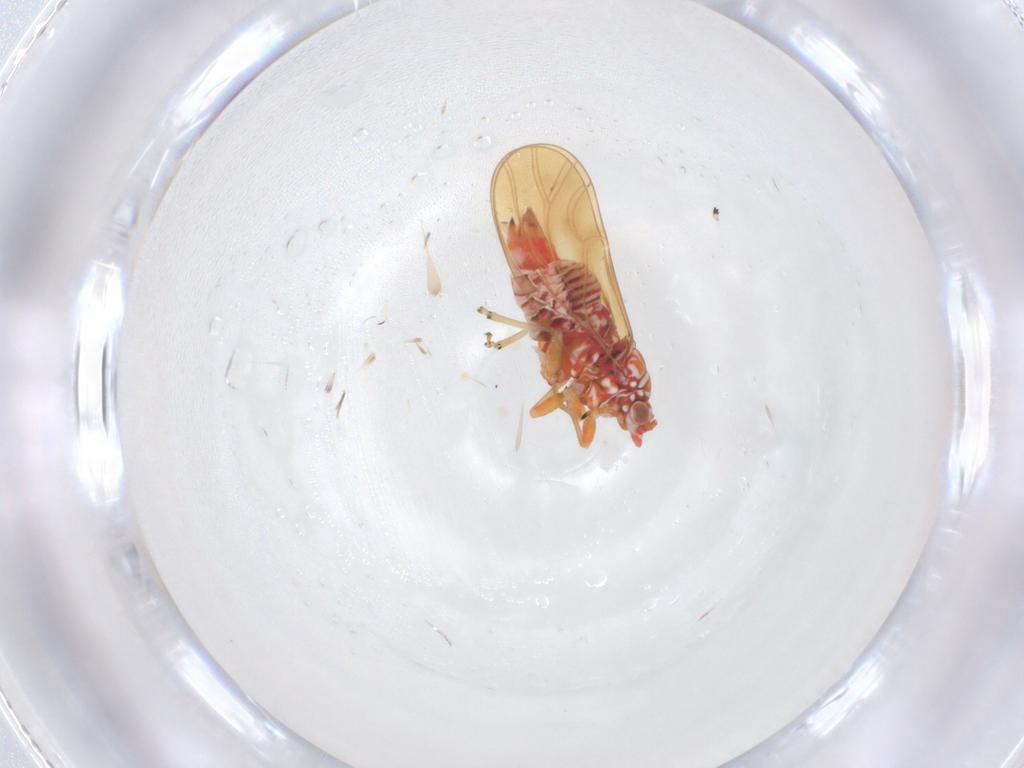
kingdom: Animalia
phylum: Arthropoda
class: Insecta
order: Hemiptera
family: Psyllidae
